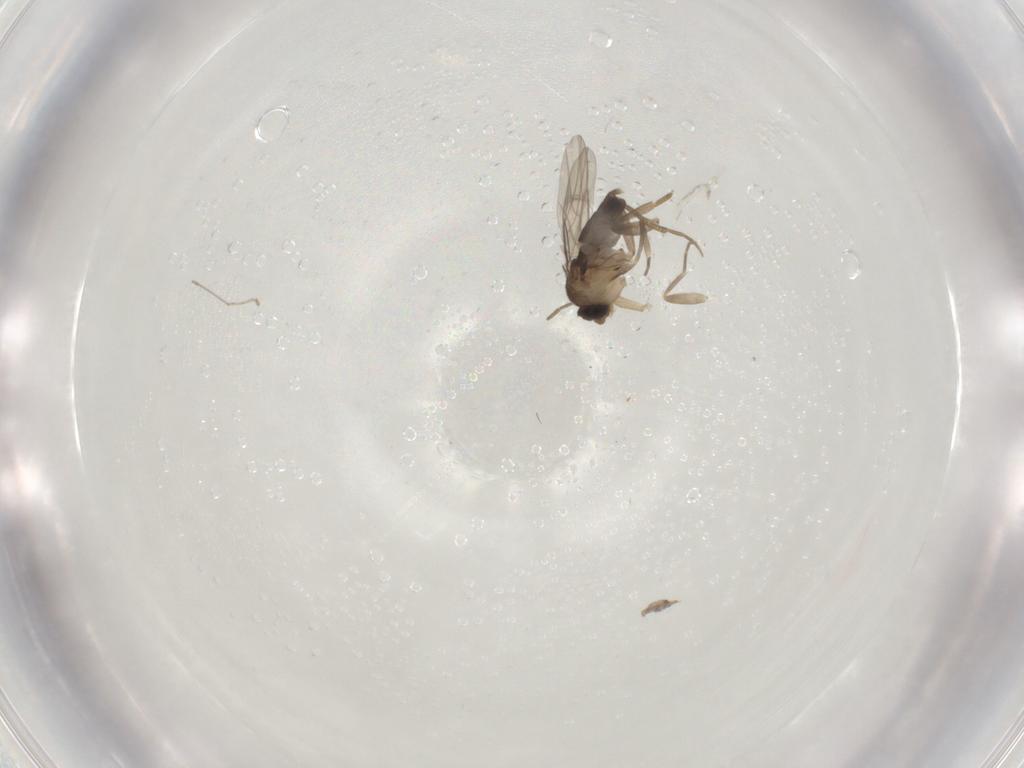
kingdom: Animalia
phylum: Arthropoda
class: Insecta
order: Diptera
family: Phoridae
